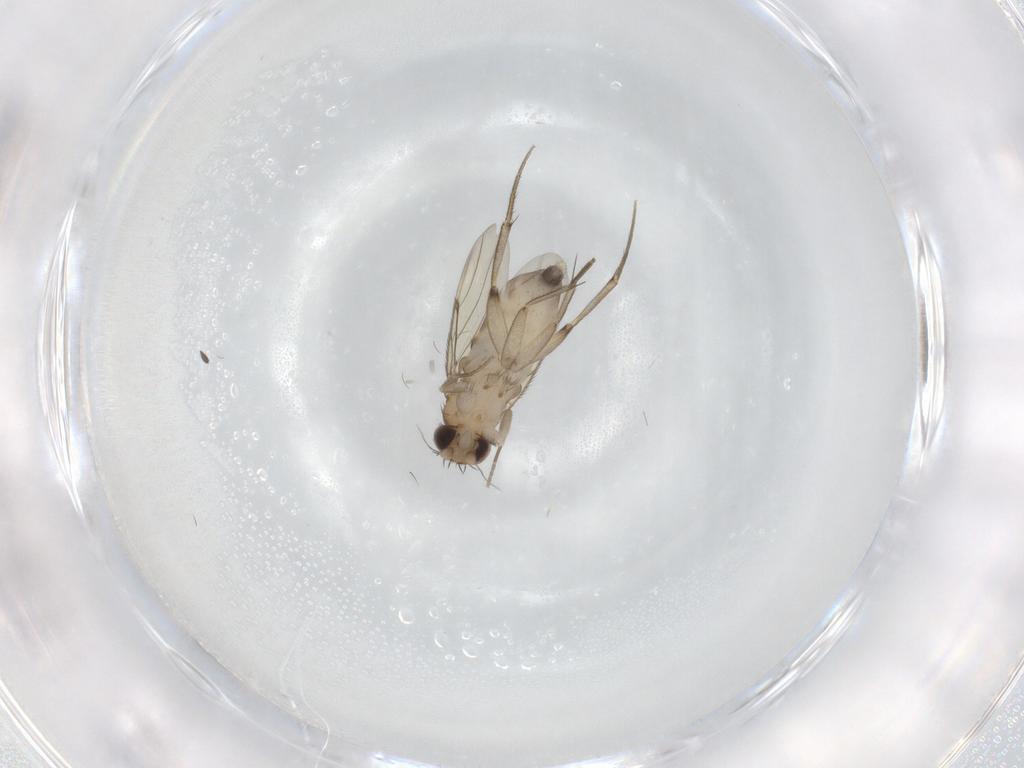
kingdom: Animalia
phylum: Arthropoda
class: Insecta
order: Diptera
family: Phoridae
